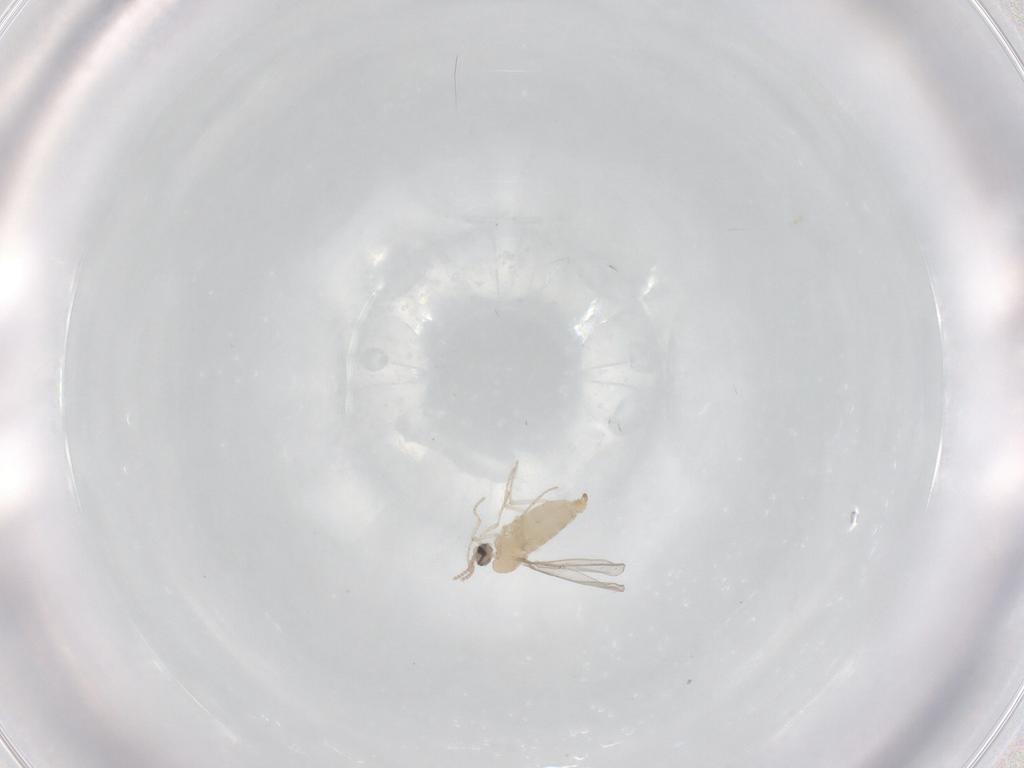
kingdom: Animalia
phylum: Arthropoda
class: Insecta
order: Diptera
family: Cecidomyiidae
